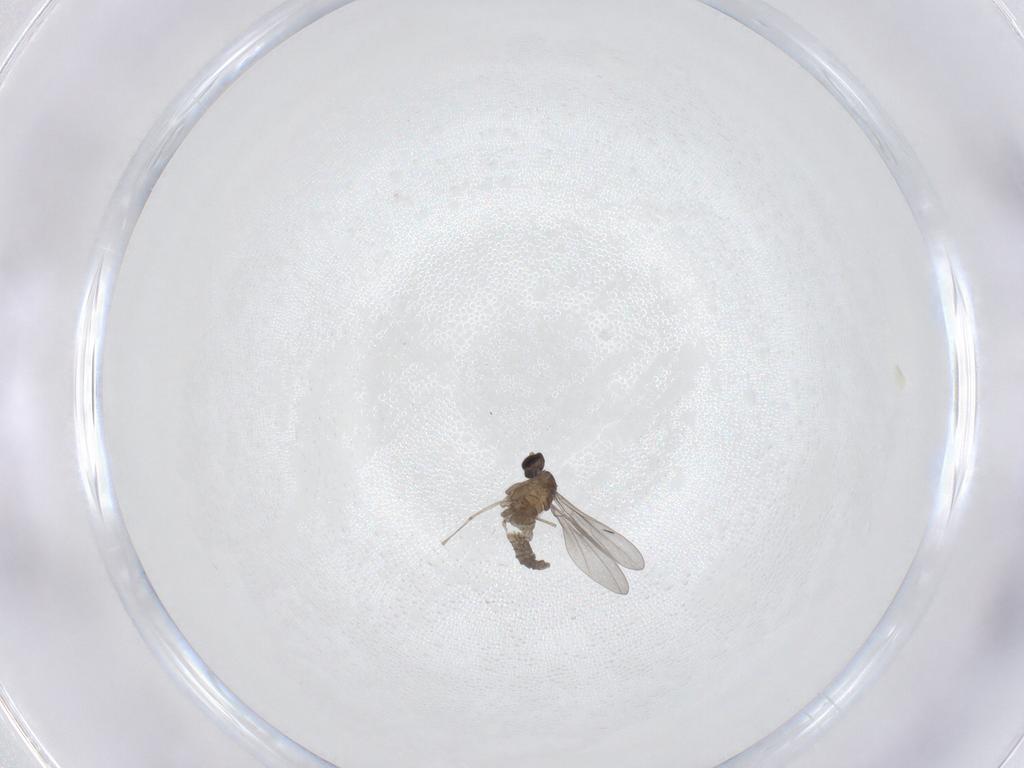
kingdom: Animalia
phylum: Arthropoda
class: Insecta
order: Diptera
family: Cecidomyiidae
